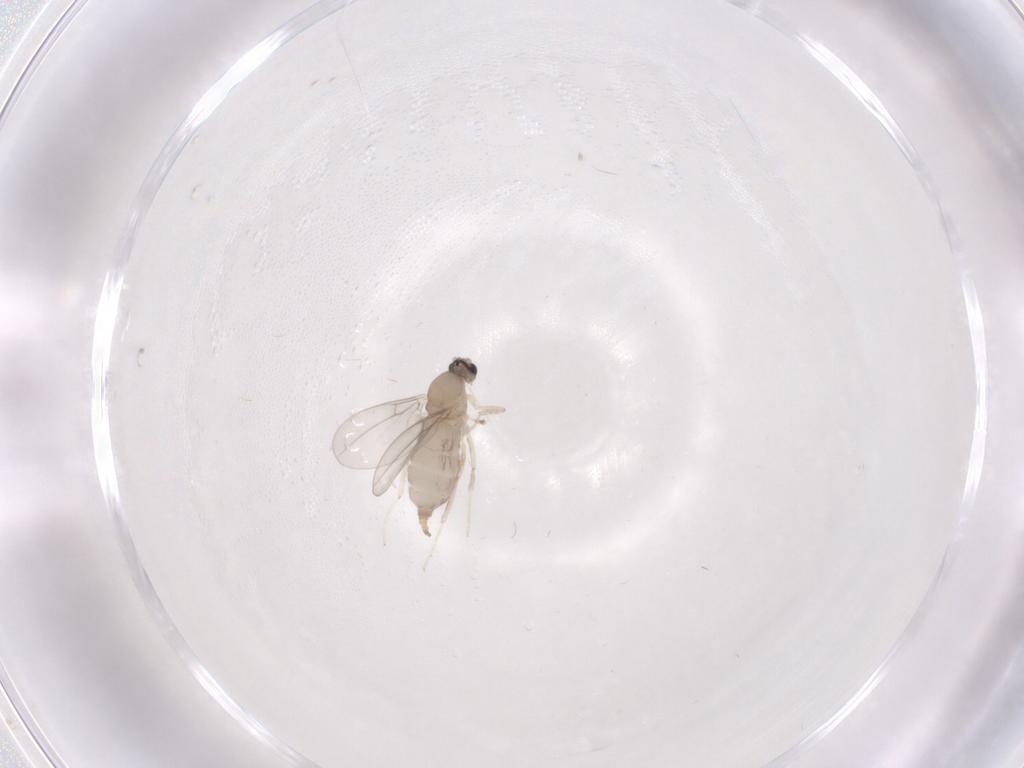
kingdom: Animalia
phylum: Arthropoda
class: Insecta
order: Diptera
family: Cecidomyiidae
